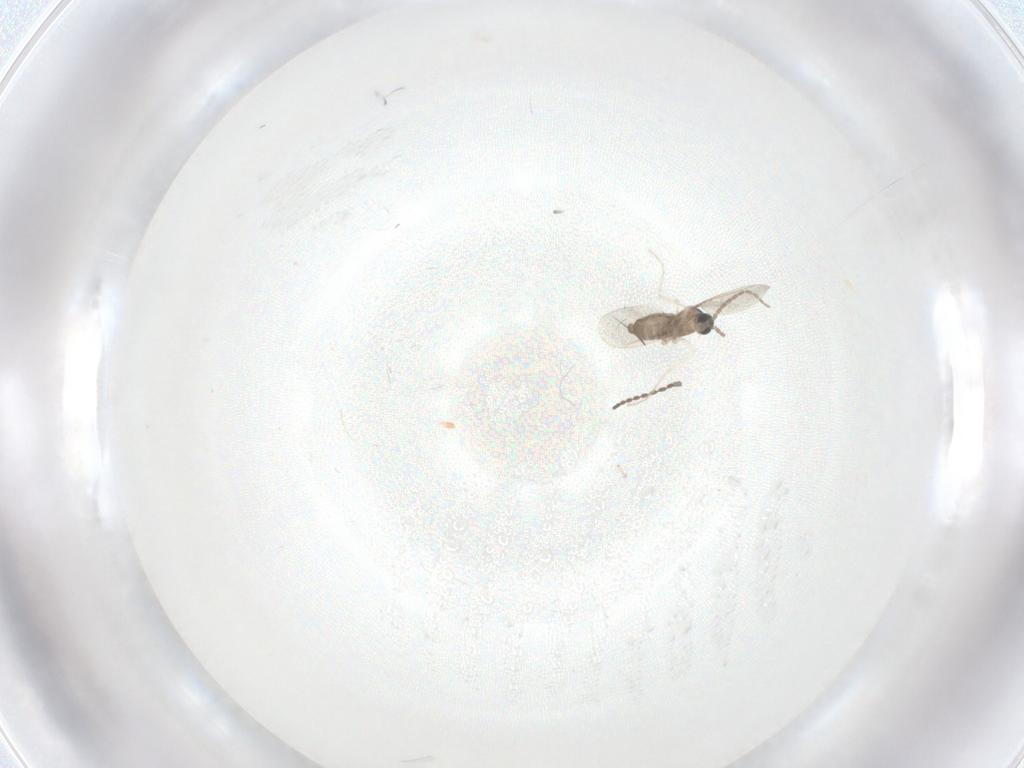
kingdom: Animalia
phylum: Arthropoda
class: Insecta
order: Diptera
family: Cecidomyiidae
